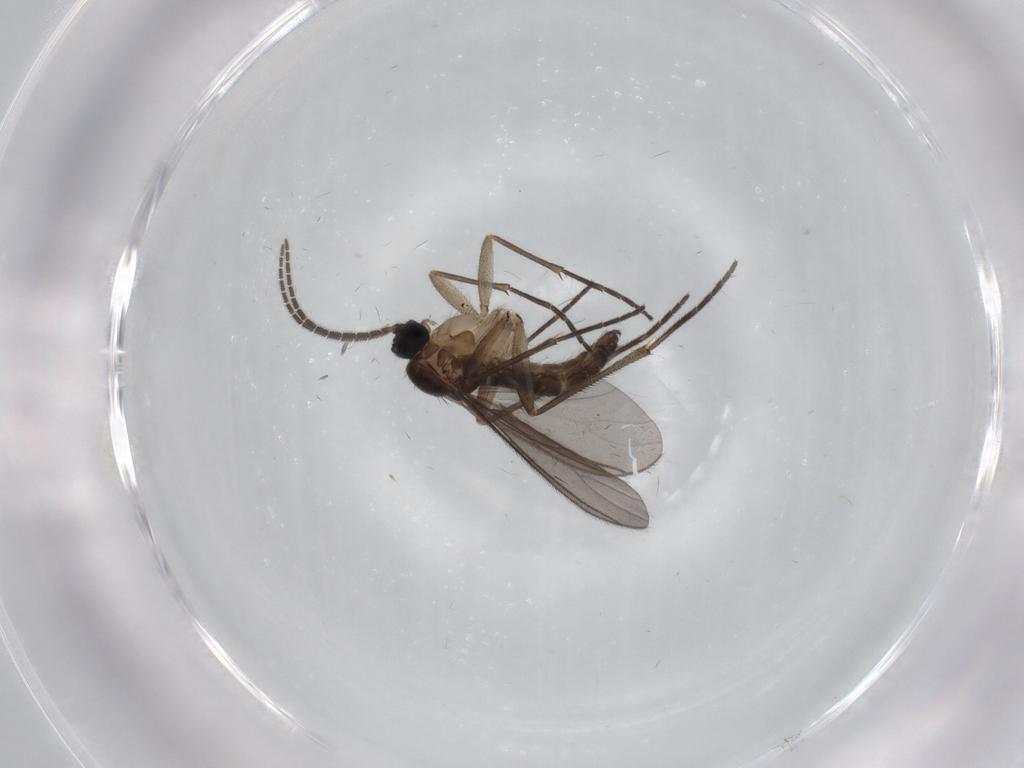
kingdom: Animalia
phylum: Arthropoda
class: Insecta
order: Diptera
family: Sciaridae
